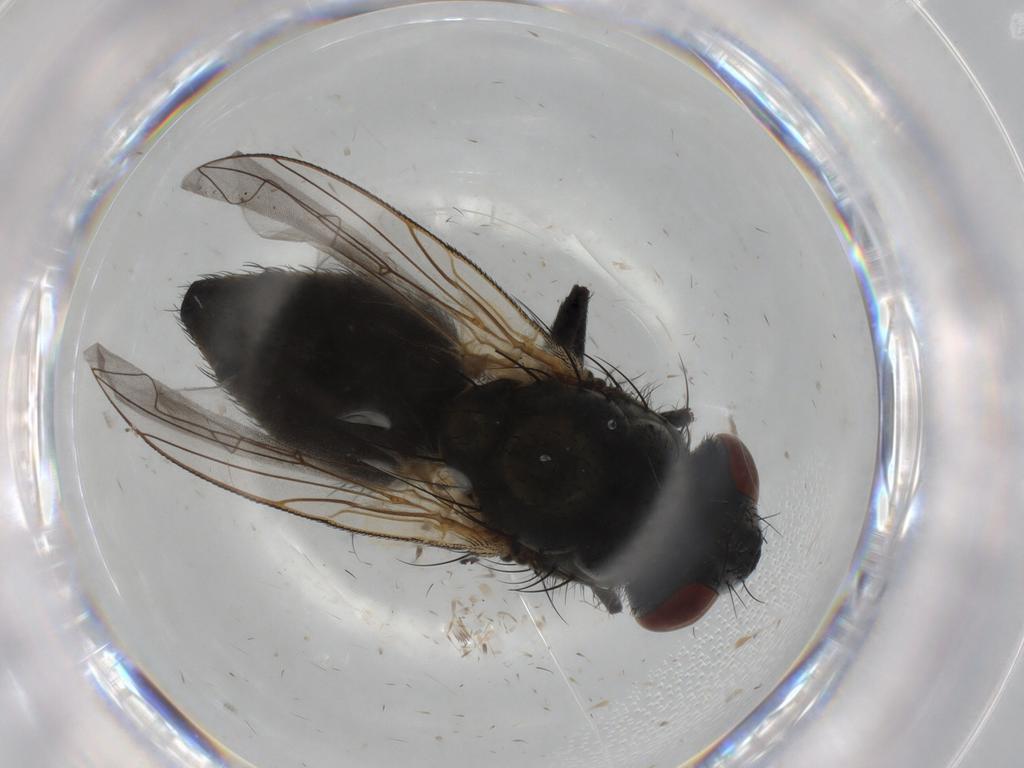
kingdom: Animalia
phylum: Arthropoda
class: Insecta
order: Diptera
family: Sarcophagidae
